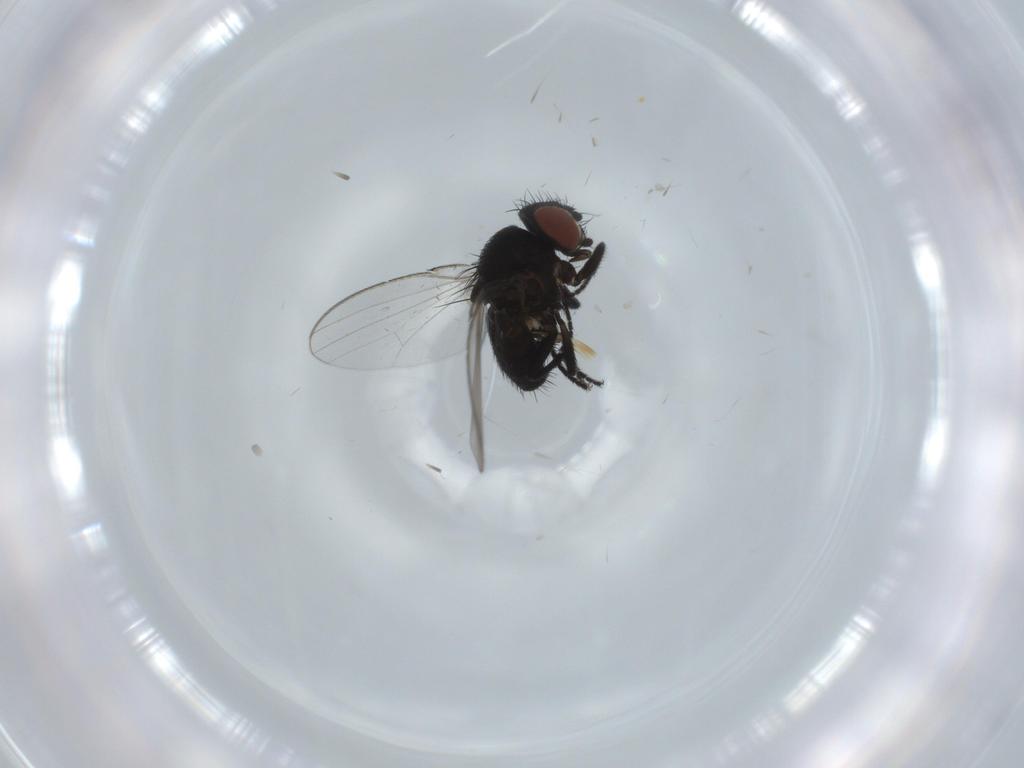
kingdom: Animalia
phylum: Arthropoda
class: Insecta
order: Diptera
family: Milichiidae
